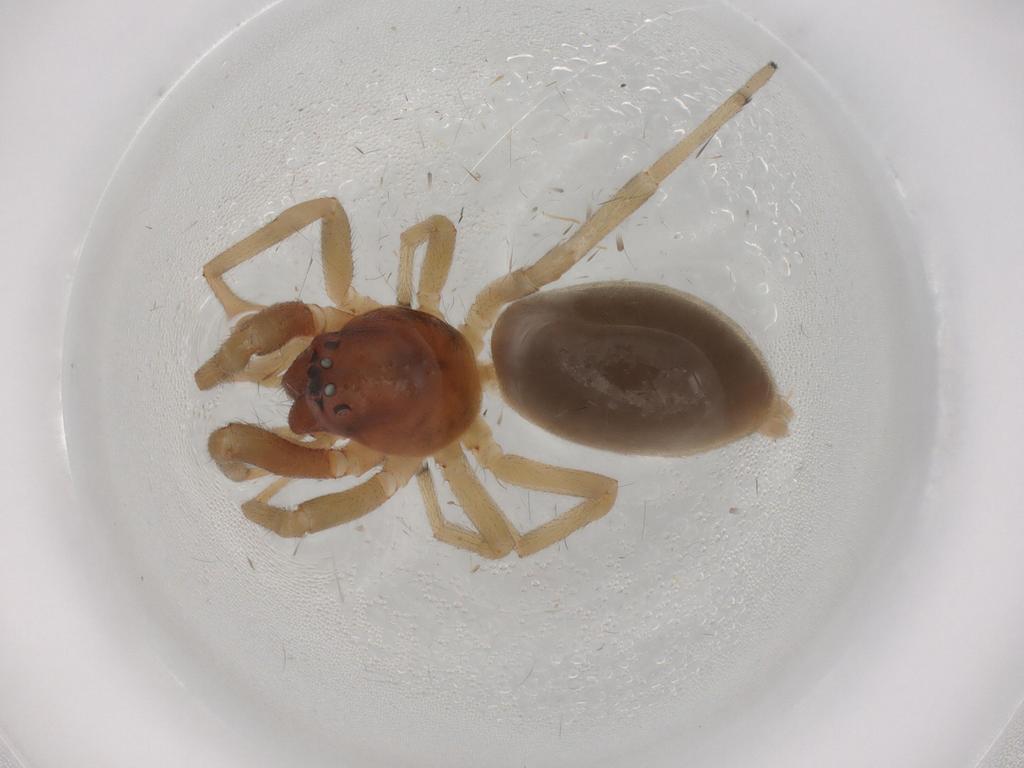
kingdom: Animalia
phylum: Arthropoda
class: Arachnida
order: Araneae
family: Trachelidae
